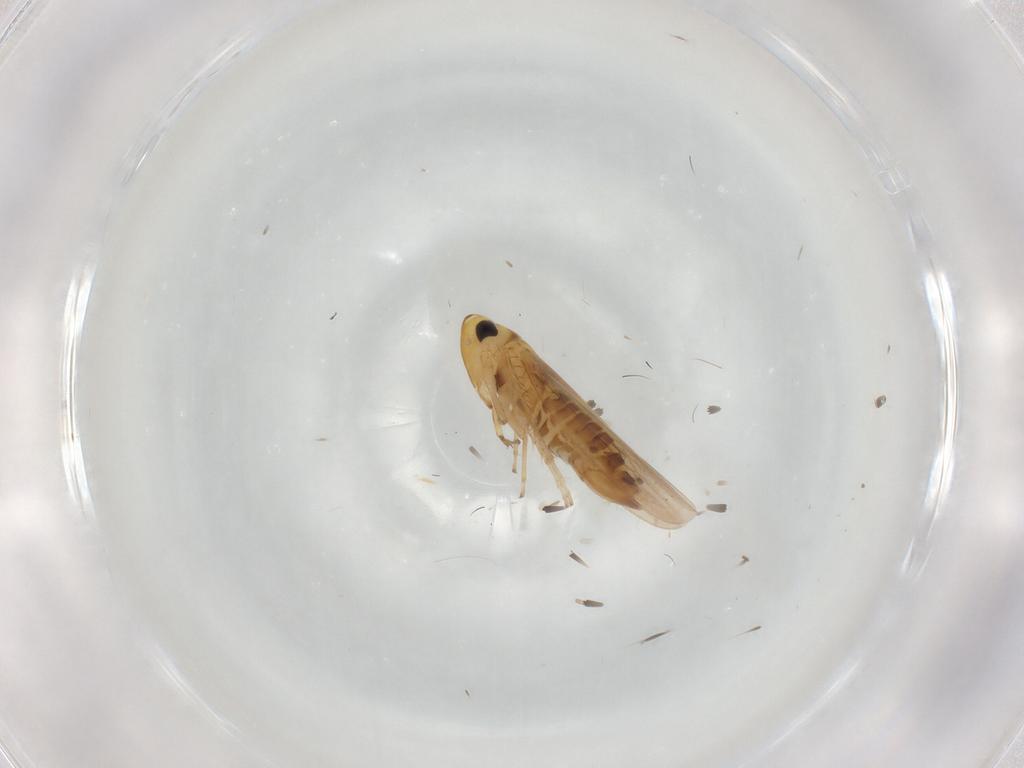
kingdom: Animalia
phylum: Arthropoda
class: Insecta
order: Hemiptera
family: Cicadellidae
